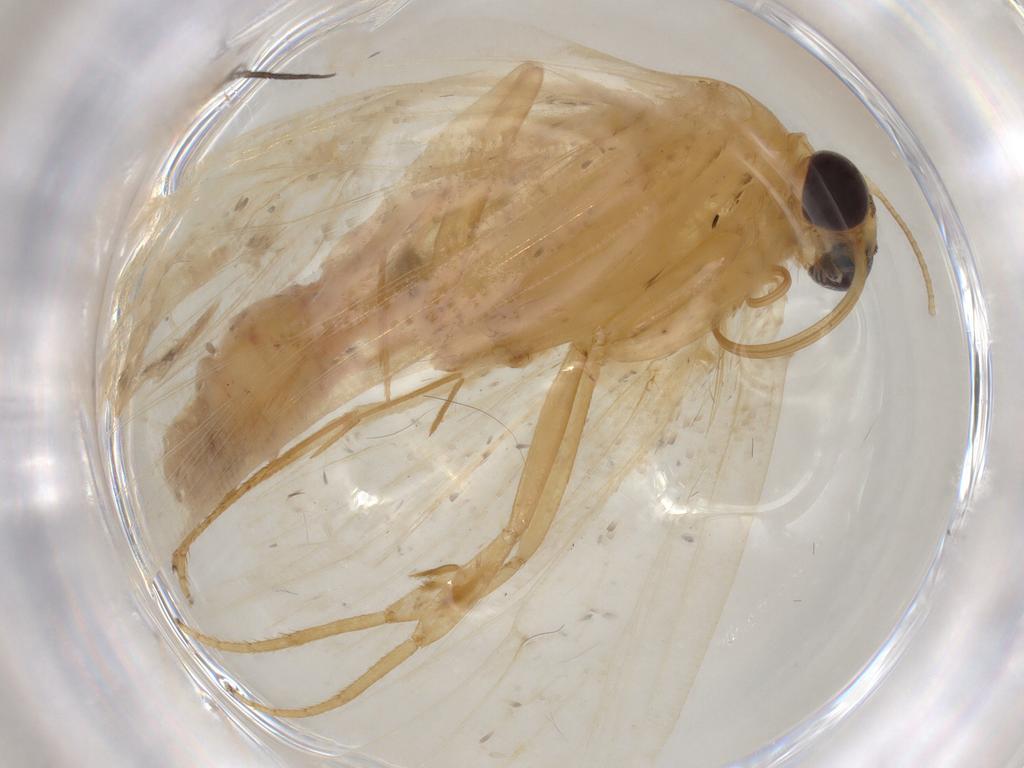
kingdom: Animalia
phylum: Arthropoda
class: Insecta
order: Lepidoptera
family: Erebidae
